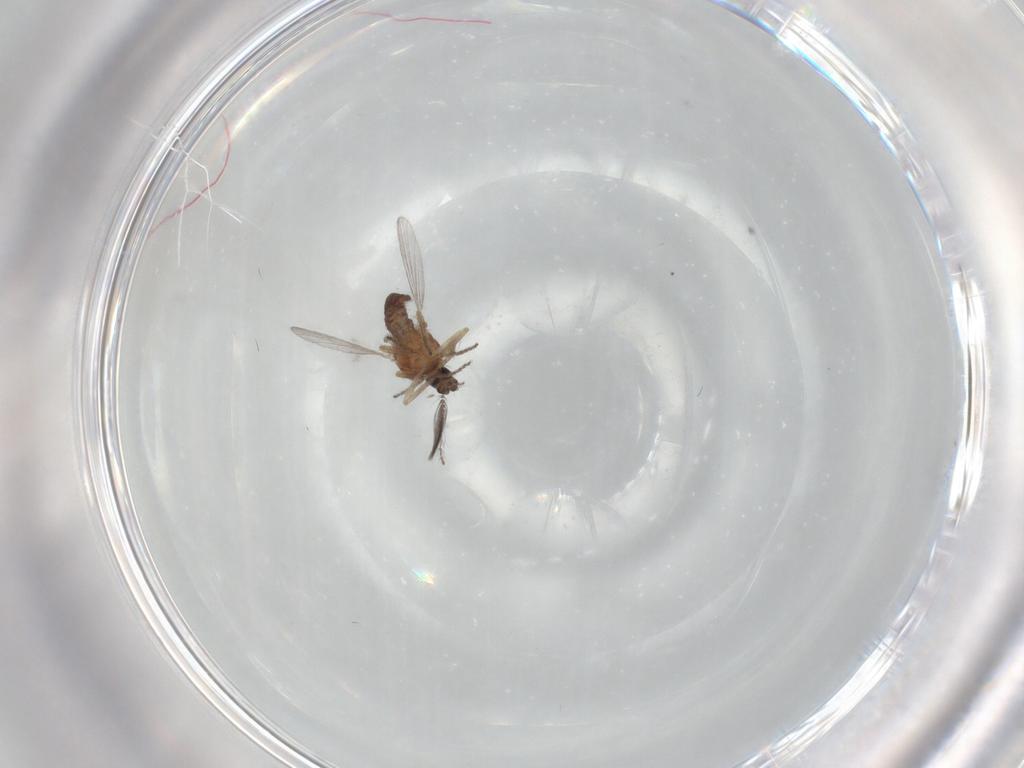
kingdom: Animalia
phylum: Arthropoda
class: Insecta
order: Diptera
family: Ceratopogonidae
